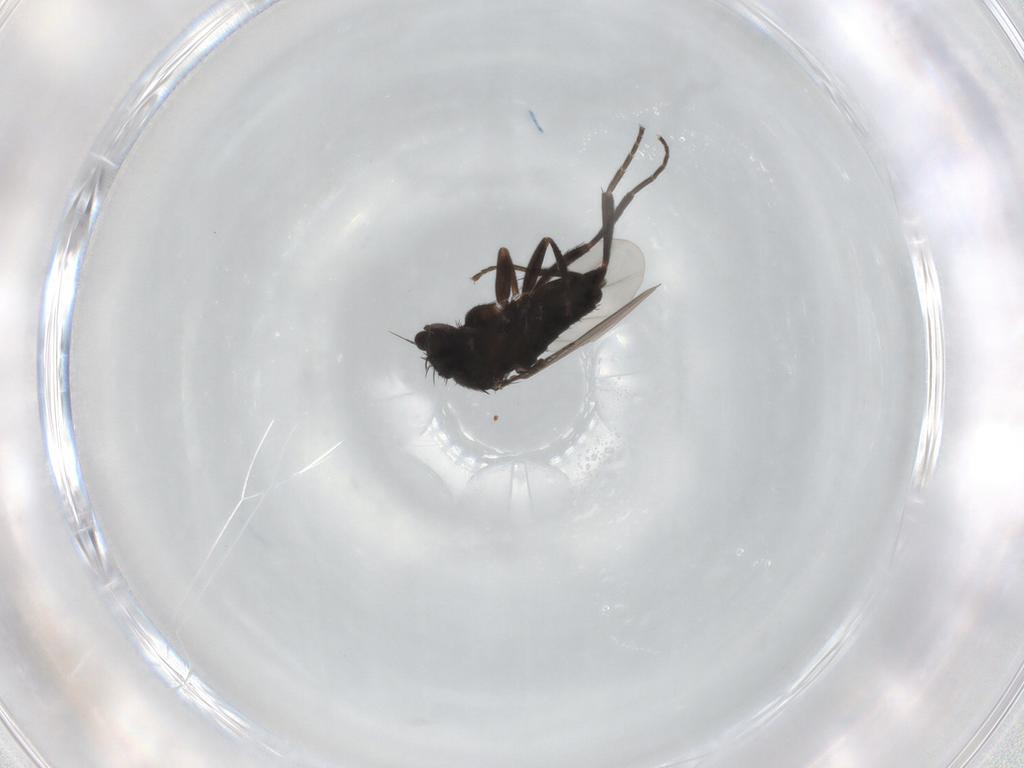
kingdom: Animalia
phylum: Arthropoda
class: Insecta
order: Diptera
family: Phoridae
